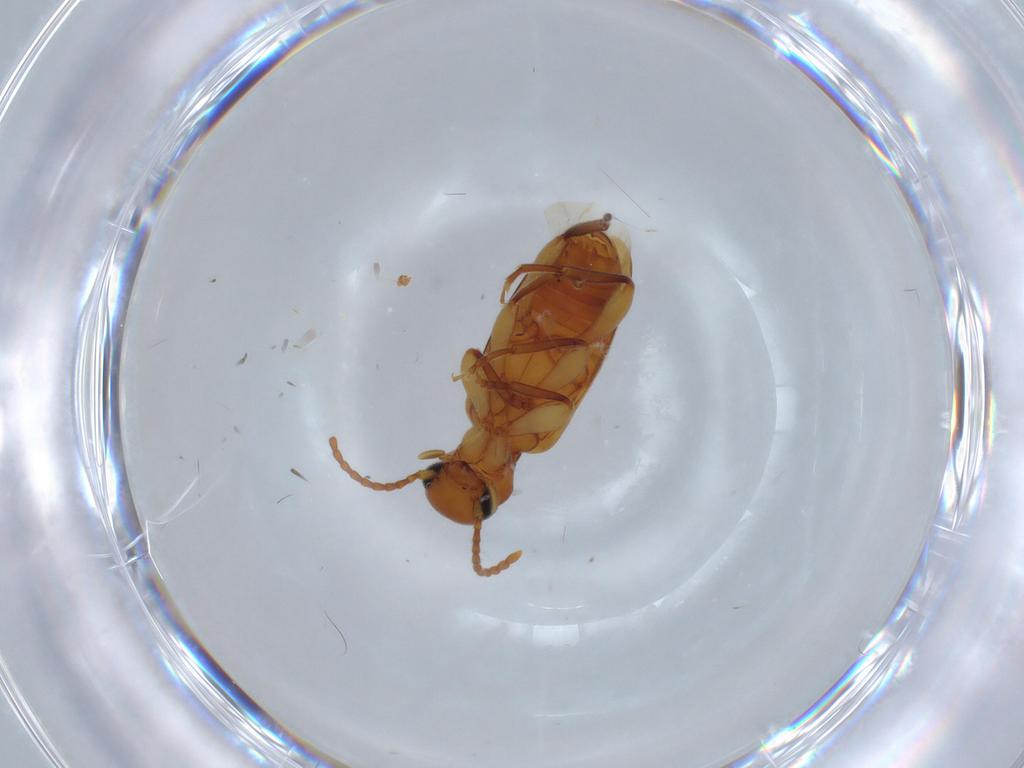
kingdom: Animalia
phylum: Arthropoda
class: Insecta
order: Coleoptera
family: Anthicidae
